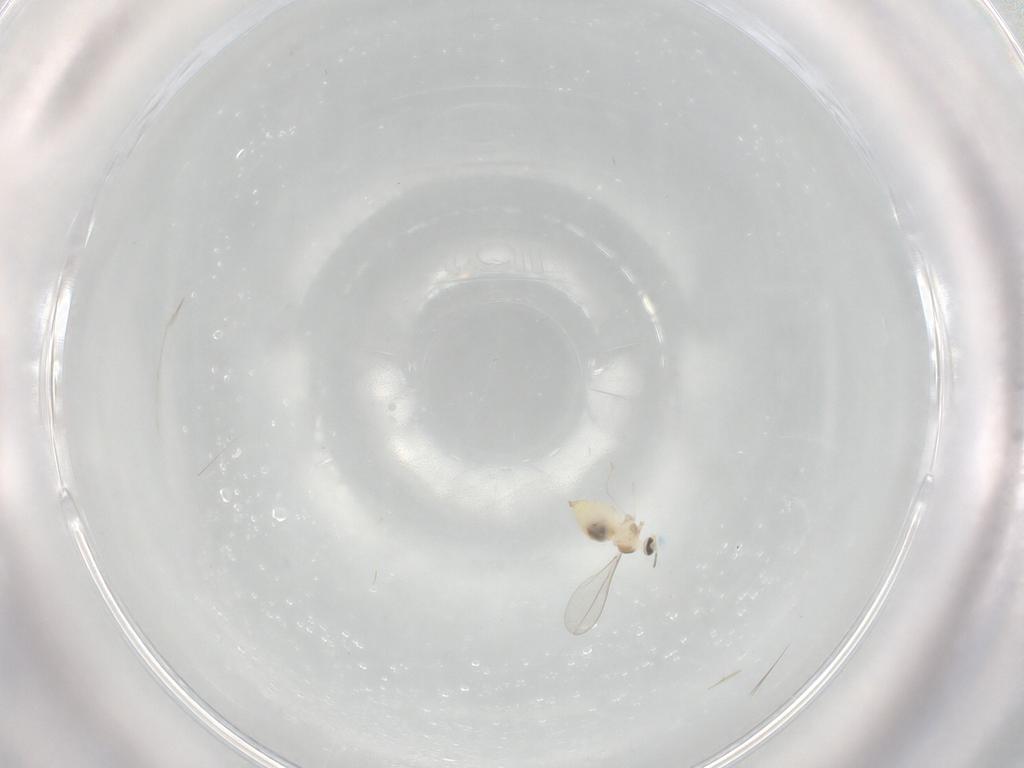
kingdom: Animalia
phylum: Arthropoda
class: Insecta
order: Diptera
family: Cecidomyiidae
